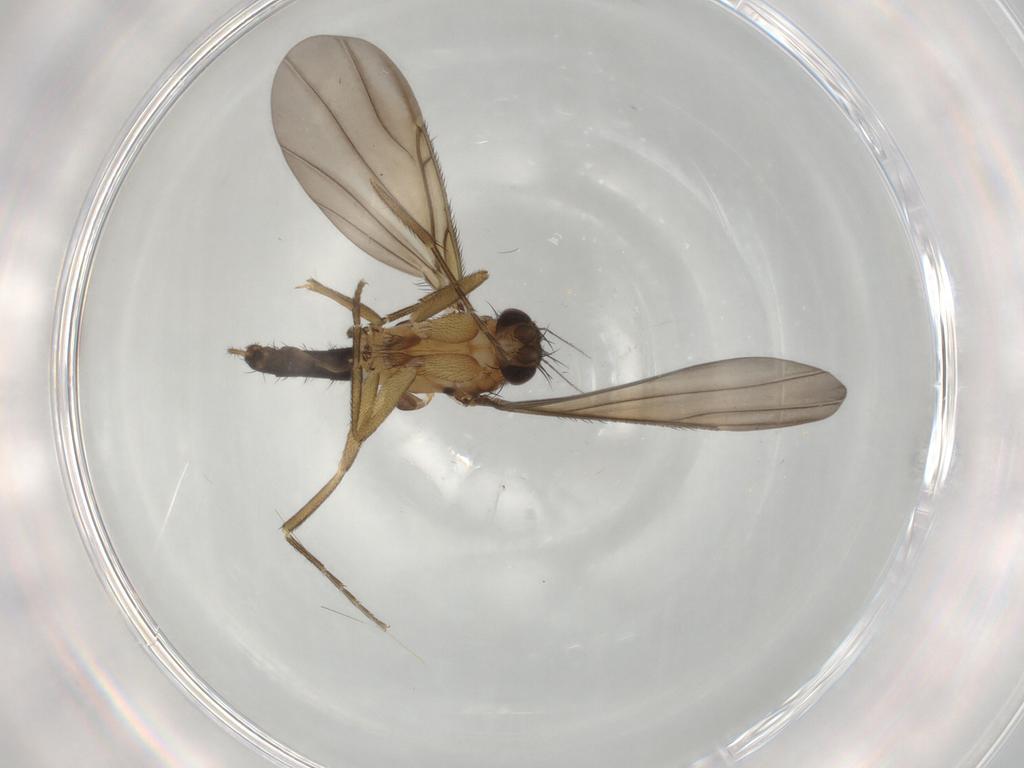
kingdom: Animalia
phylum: Arthropoda
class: Insecta
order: Diptera
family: Phoridae
